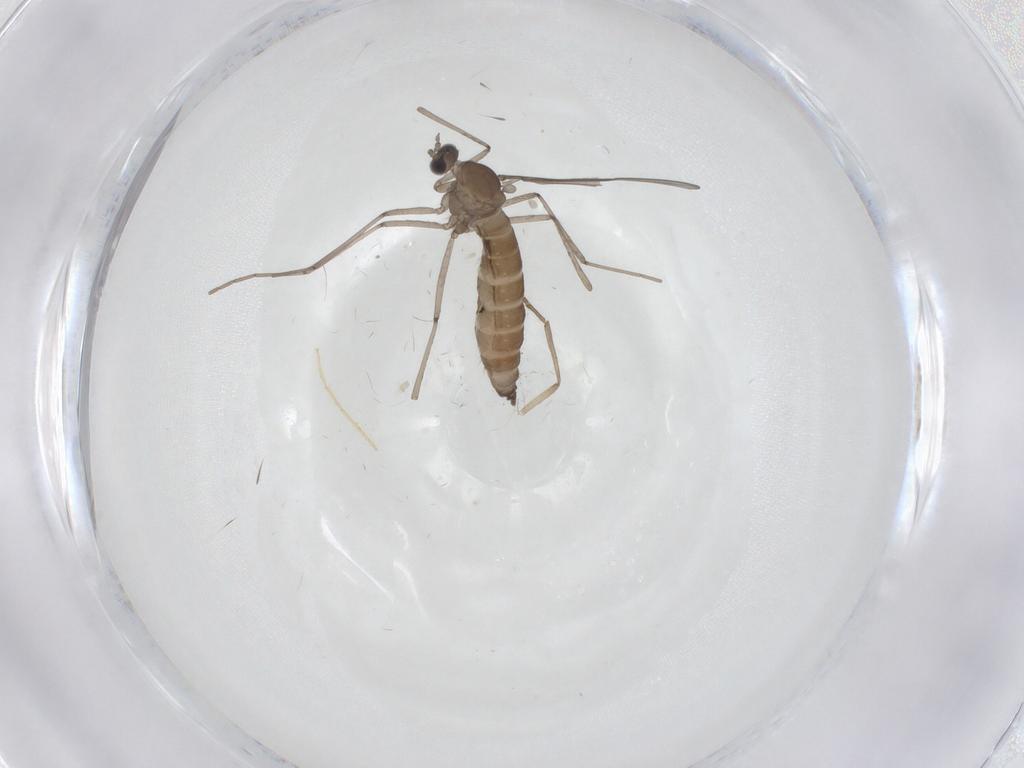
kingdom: Animalia
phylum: Arthropoda
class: Insecta
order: Diptera
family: Cecidomyiidae
